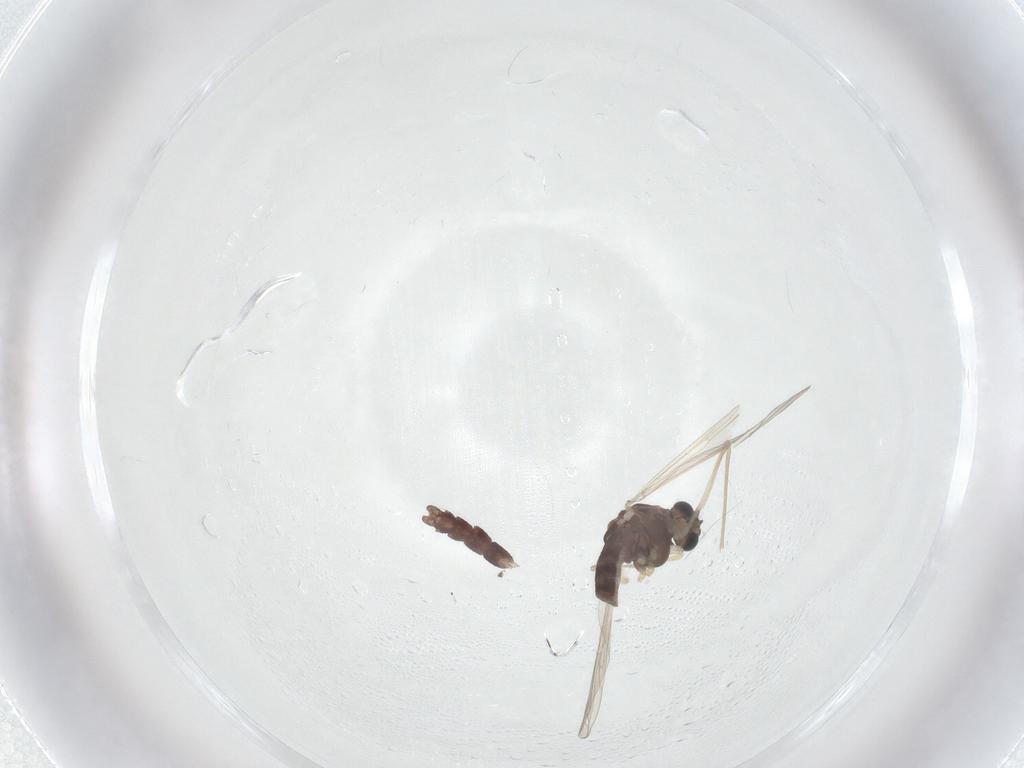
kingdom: Animalia
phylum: Arthropoda
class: Insecta
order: Diptera
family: Chironomidae
